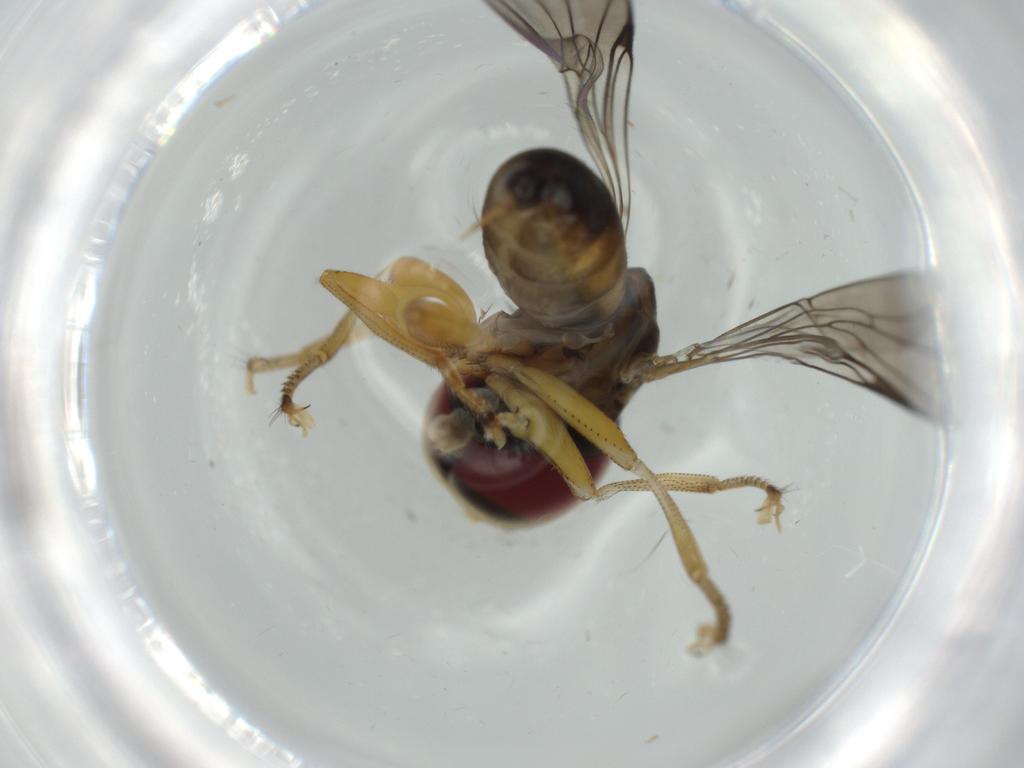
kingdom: Animalia
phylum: Arthropoda
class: Insecta
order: Diptera
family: Pipunculidae
